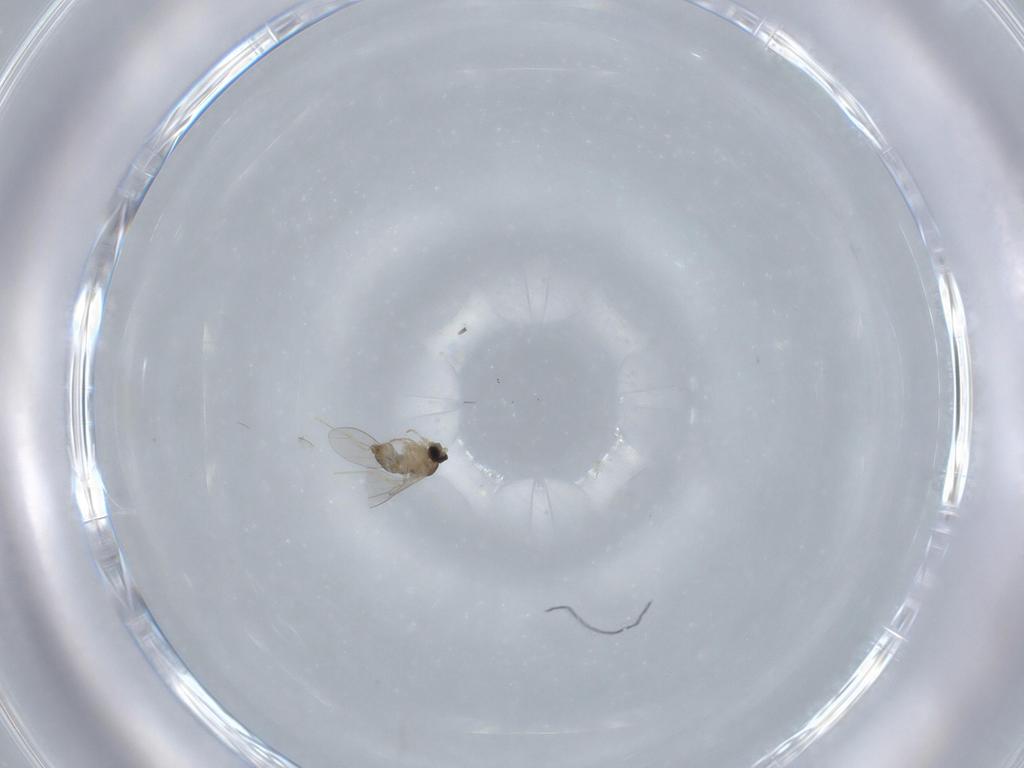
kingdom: Animalia
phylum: Arthropoda
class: Insecta
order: Diptera
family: Cecidomyiidae
